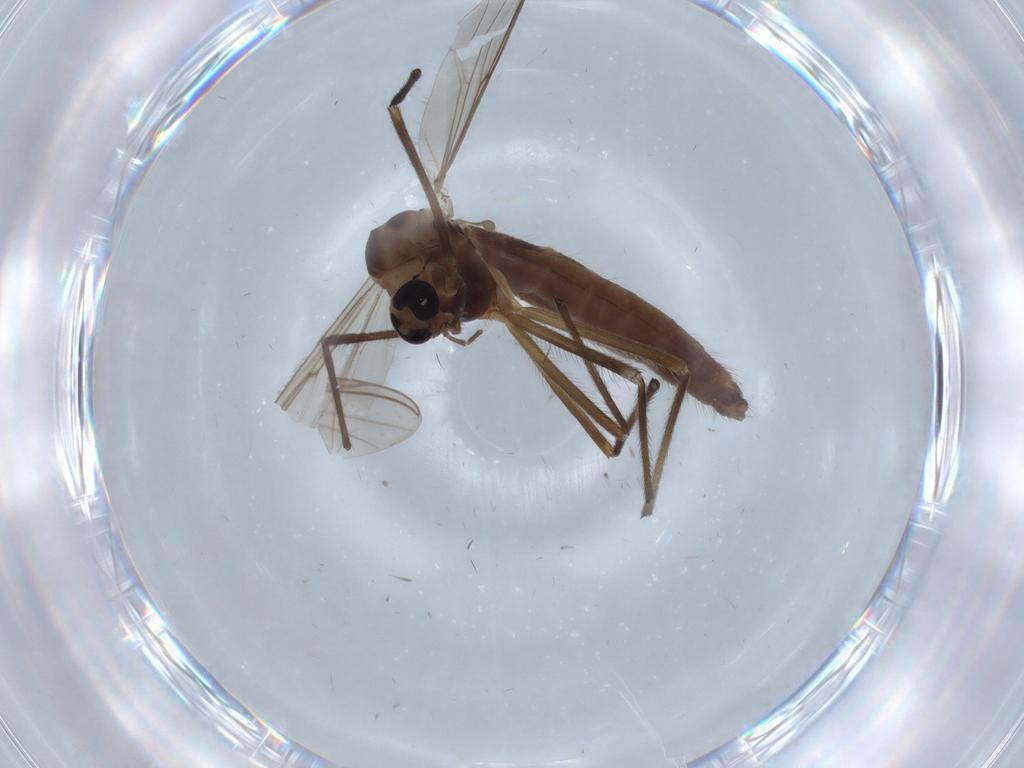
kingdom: Animalia
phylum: Arthropoda
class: Insecta
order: Diptera
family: Chironomidae
